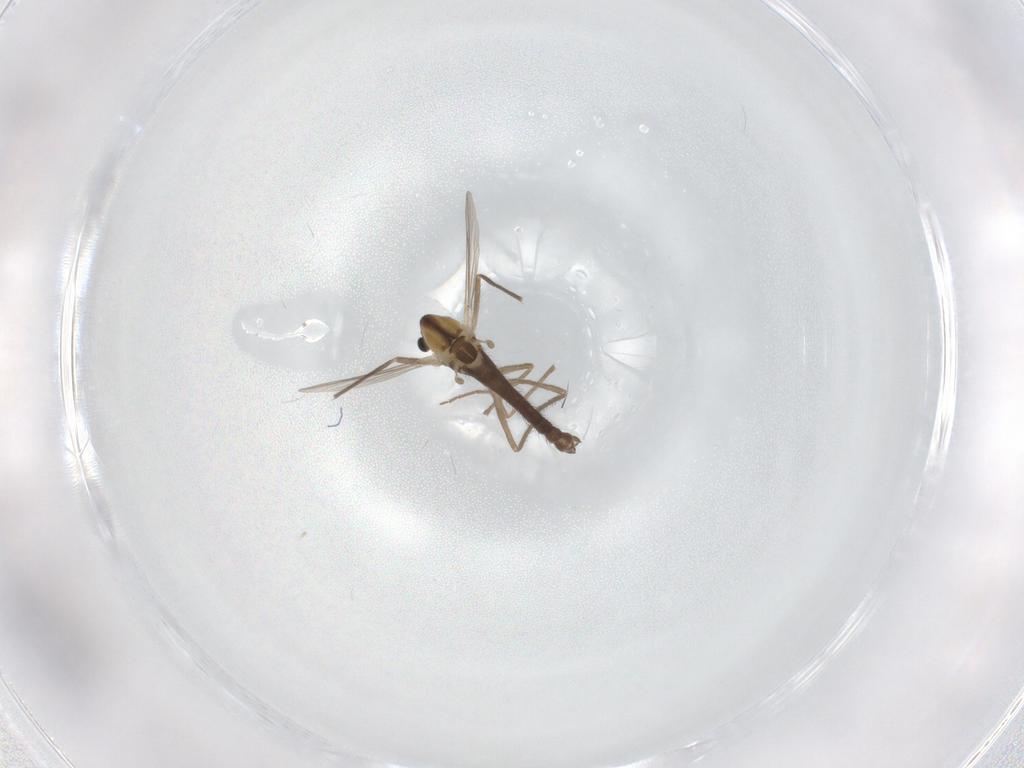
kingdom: Animalia
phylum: Arthropoda
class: Insecta
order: Diptera
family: Chironomidae
